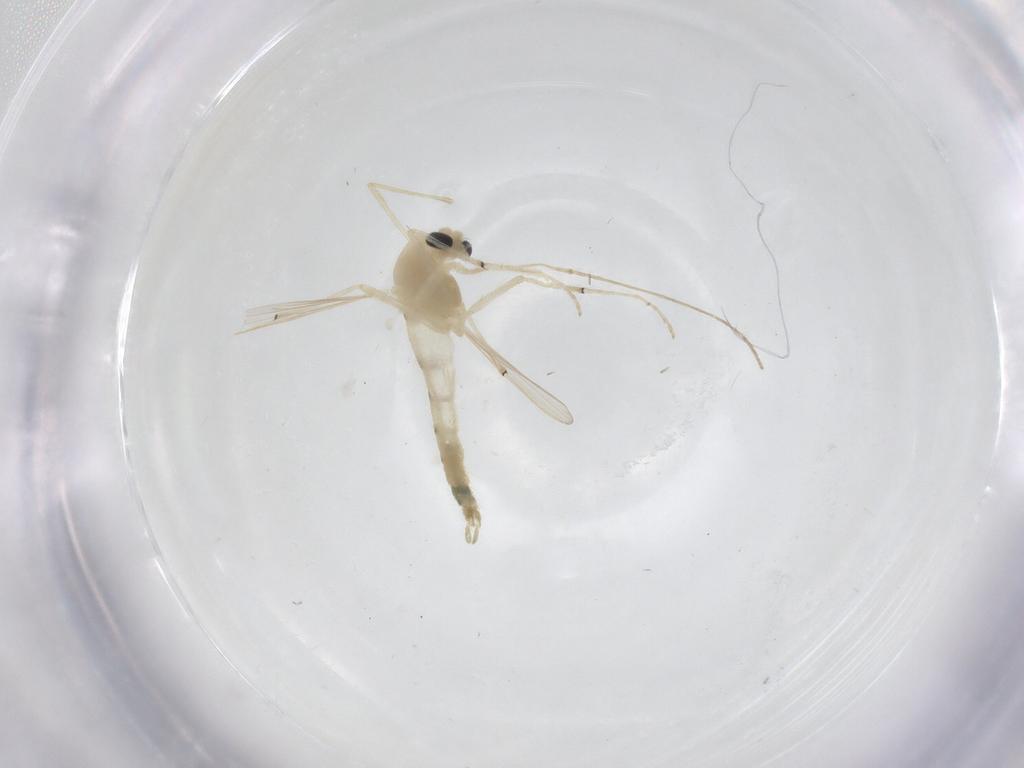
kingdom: Animalia
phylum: Arthropoda
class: Insecta
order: Diptera
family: Chironomidae
